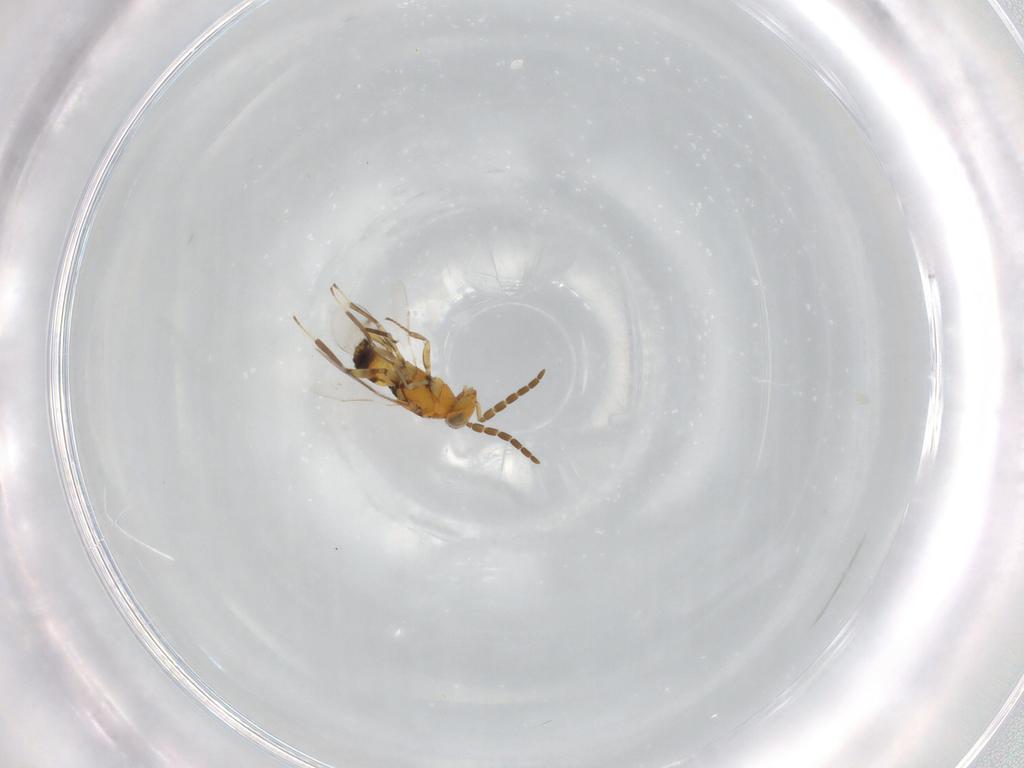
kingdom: Animalia
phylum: Arthropoda
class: Insecta
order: Hymenoptera
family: Aphelinidae
